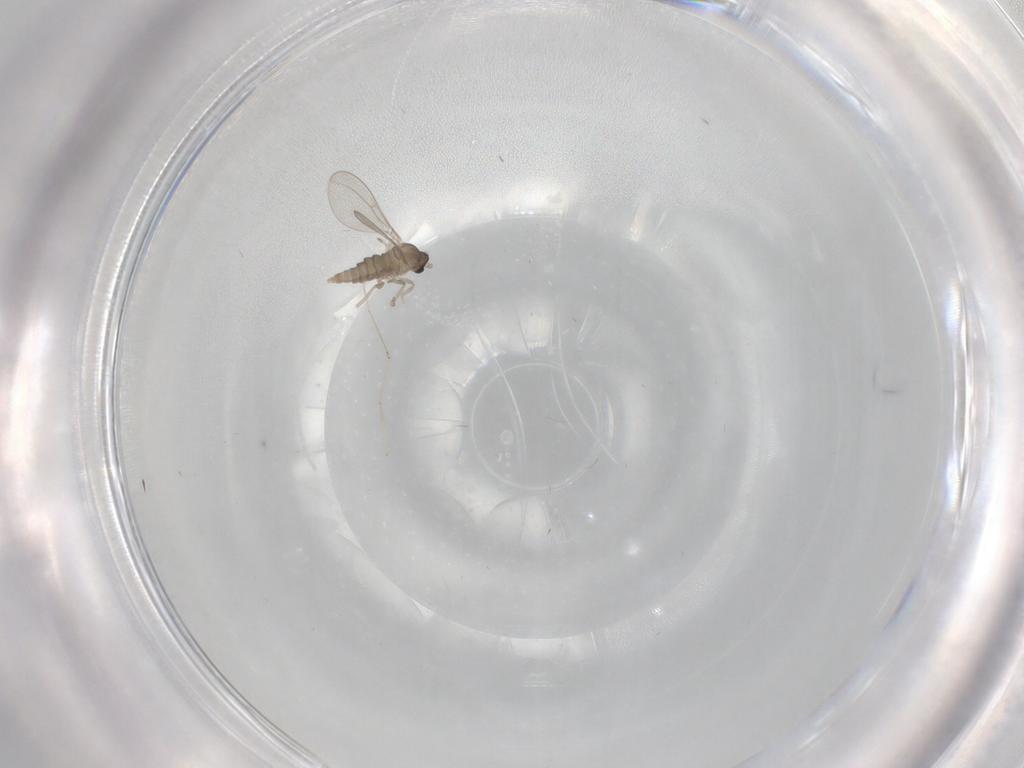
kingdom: Animalia
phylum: Arthropoda
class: Insecta
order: Diptera
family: Cecidomyiidae
